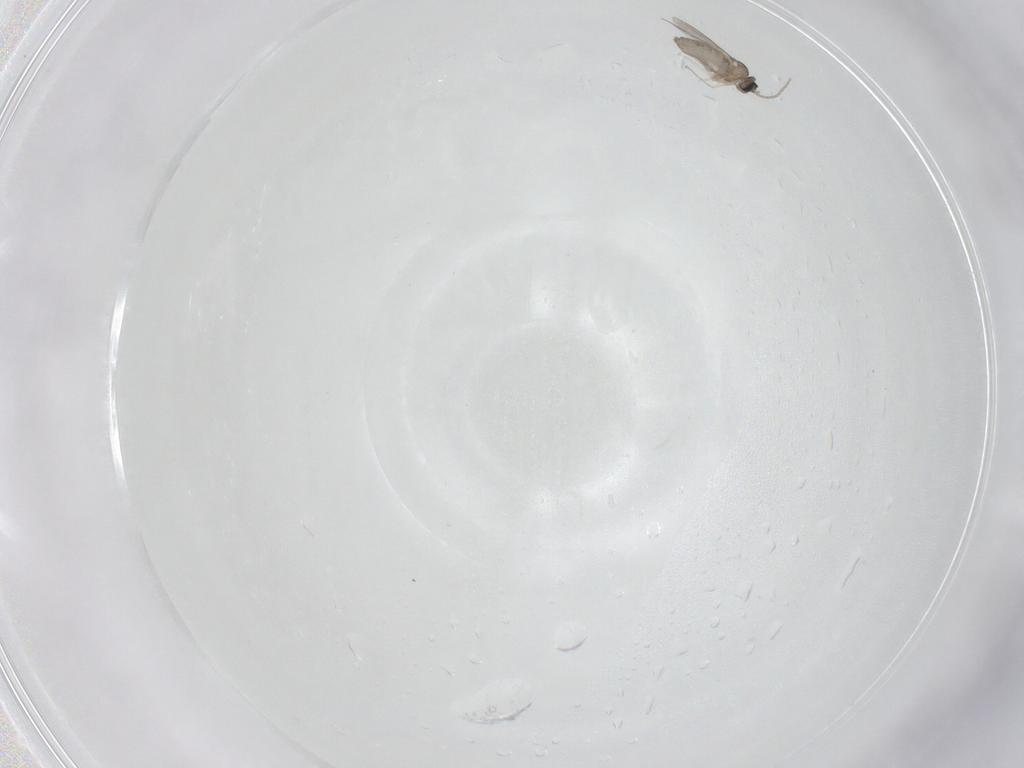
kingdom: Animalia
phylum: Arthropoda
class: Insecta
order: Diptera
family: Cecidomyiidae
